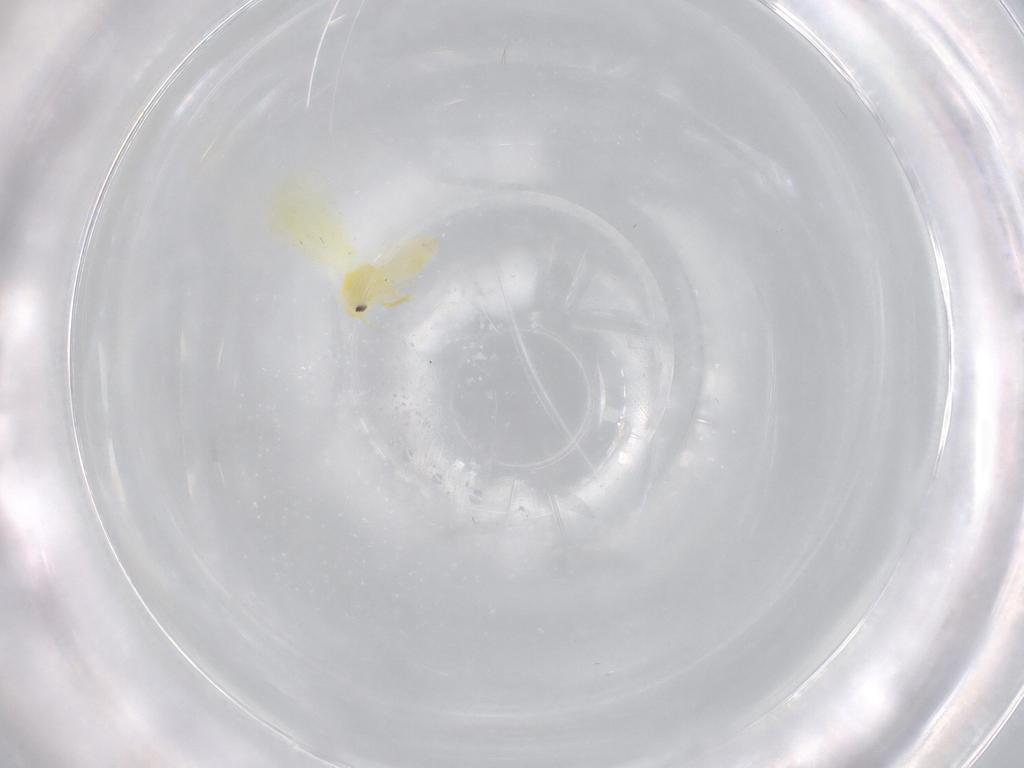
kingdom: Animalia
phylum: Arthropoda
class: Insecta
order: Hemiptera
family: Aleyrodidae
